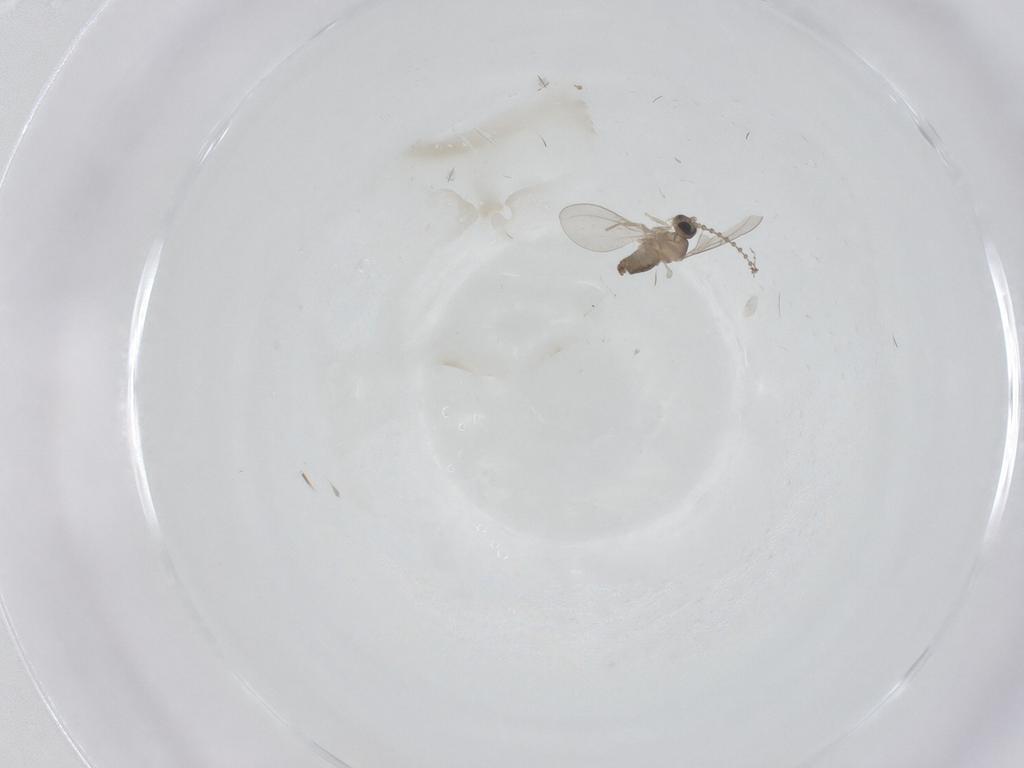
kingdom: Animalia
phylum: Arthropoda
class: Insecta
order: Diptera
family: Cecidomyiidae
